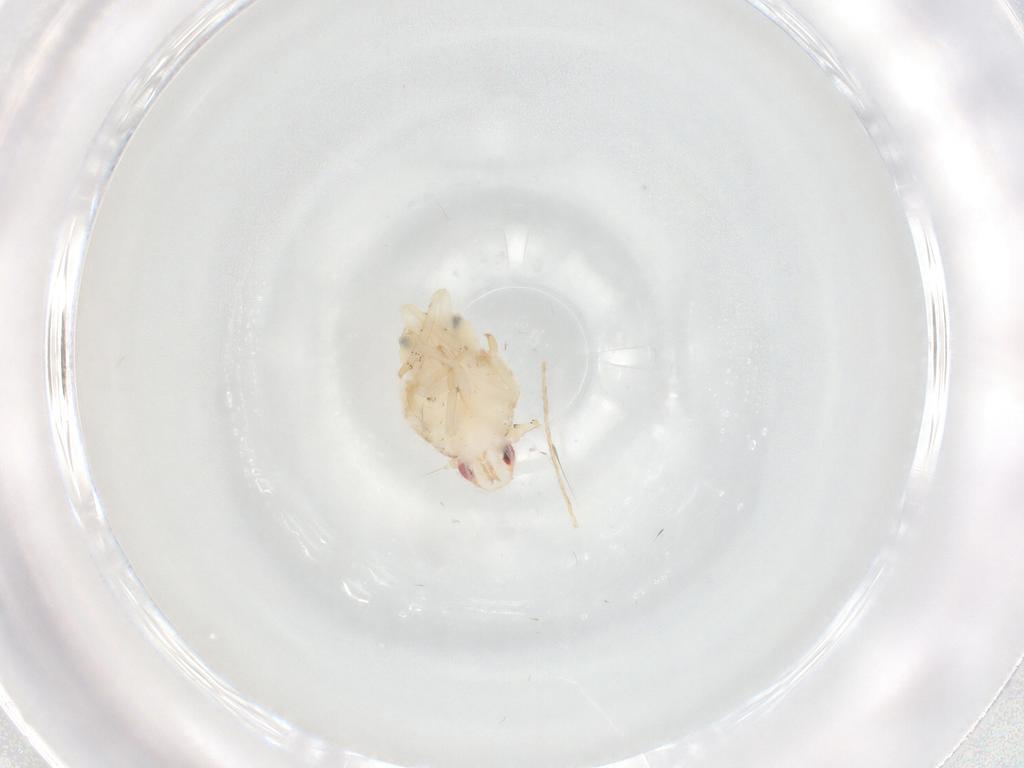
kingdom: Animalia
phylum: Arthropoda
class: Insecta
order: Hemiptera
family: Flatidae
